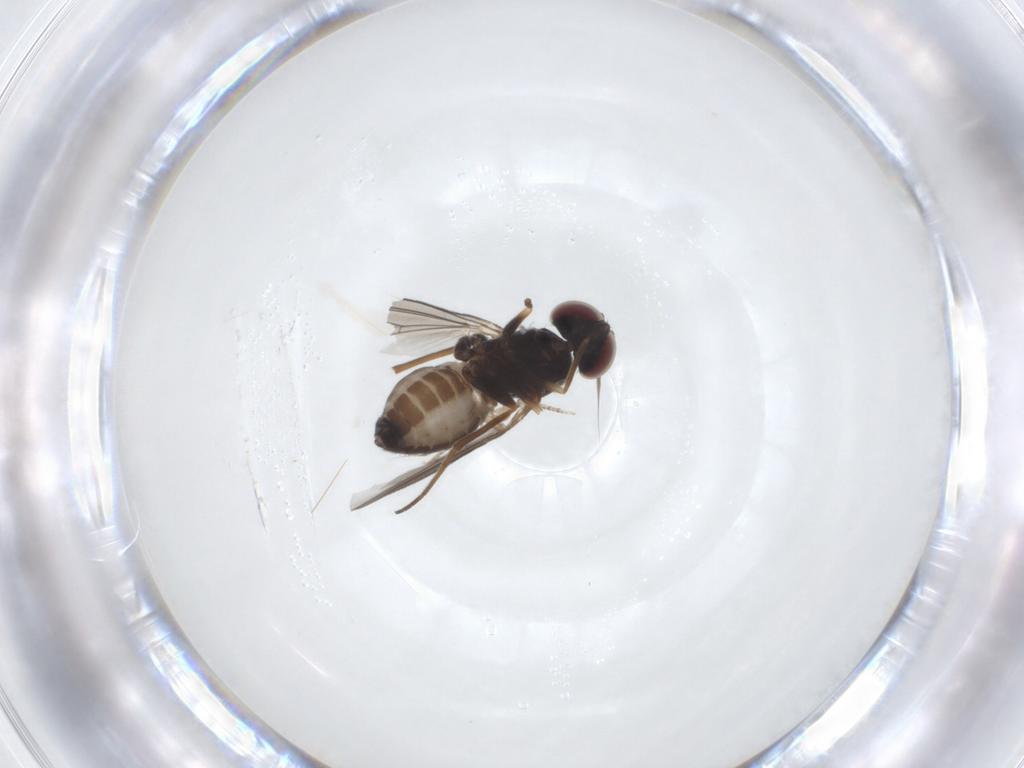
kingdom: Animalia
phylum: Arthropoda
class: Insecta
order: Diptera
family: Dolichopodidae
